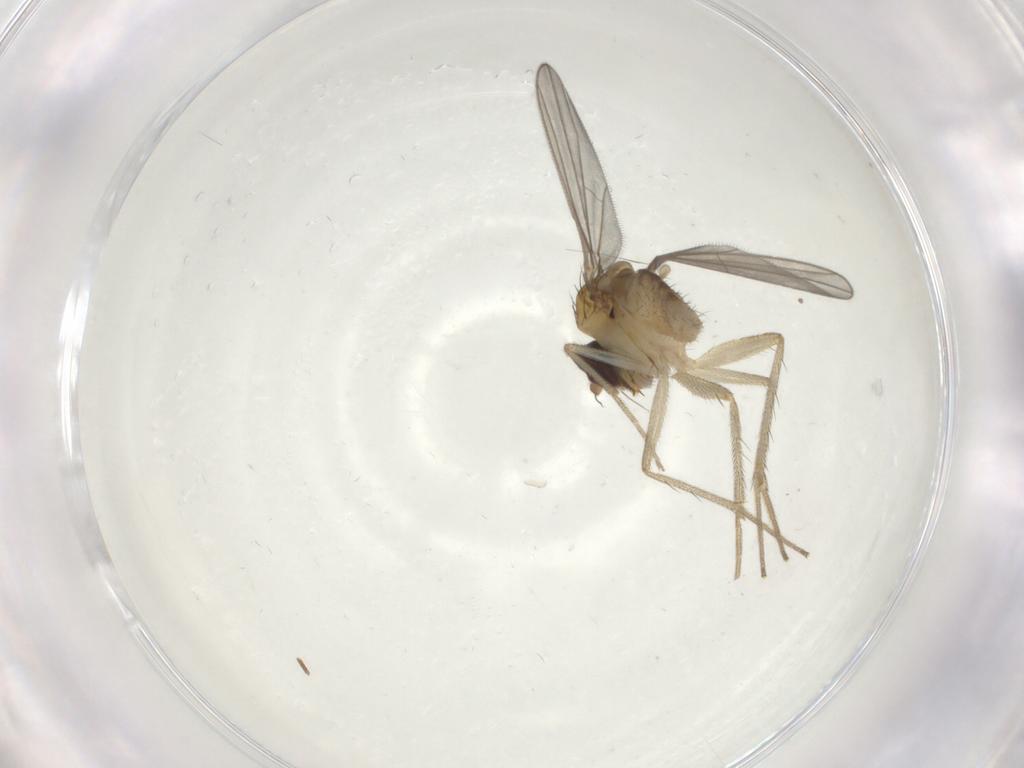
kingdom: Animalia
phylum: Arthropoda
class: Insecta
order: Diptera
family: Dolichopodidae
